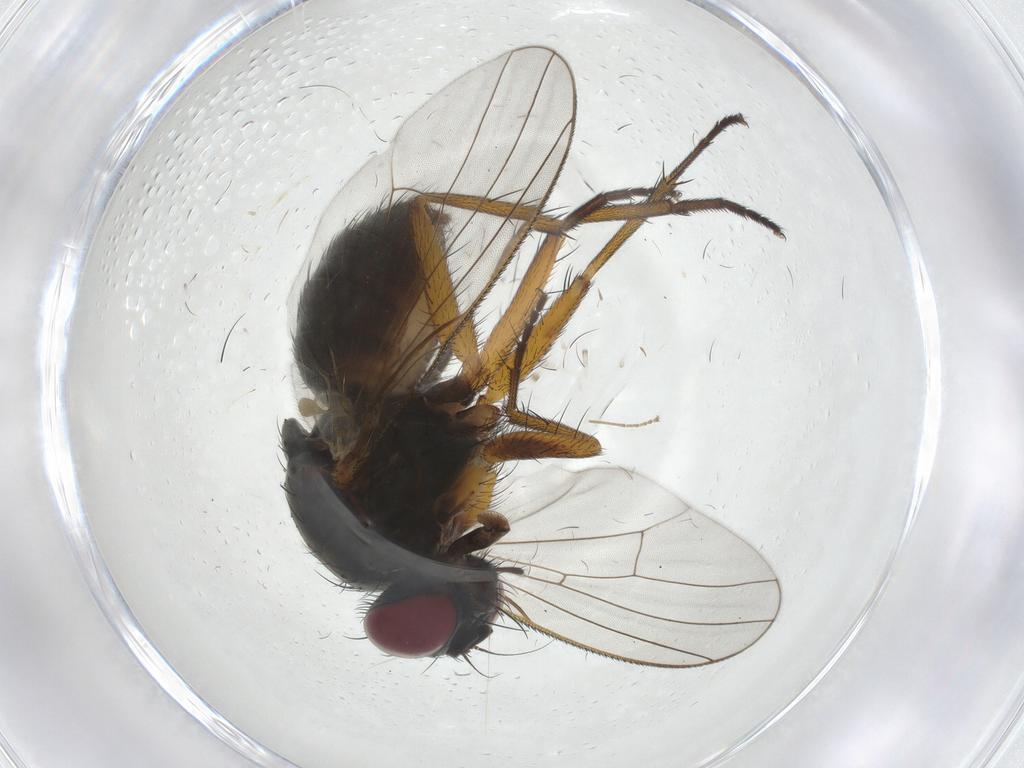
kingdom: Animalia
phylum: Arthropoda
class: Insecta
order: Diptera
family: Muscidae
